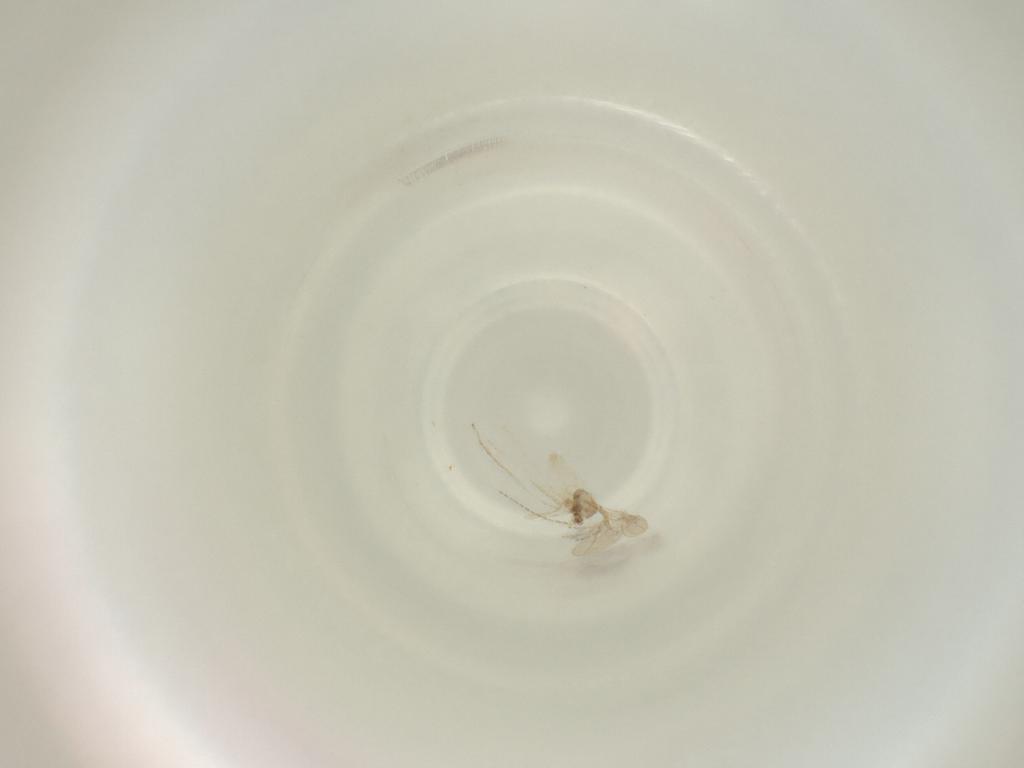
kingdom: Animalia
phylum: Arthropoda
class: Insecta
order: Diptera
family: Cecidomyiidae
